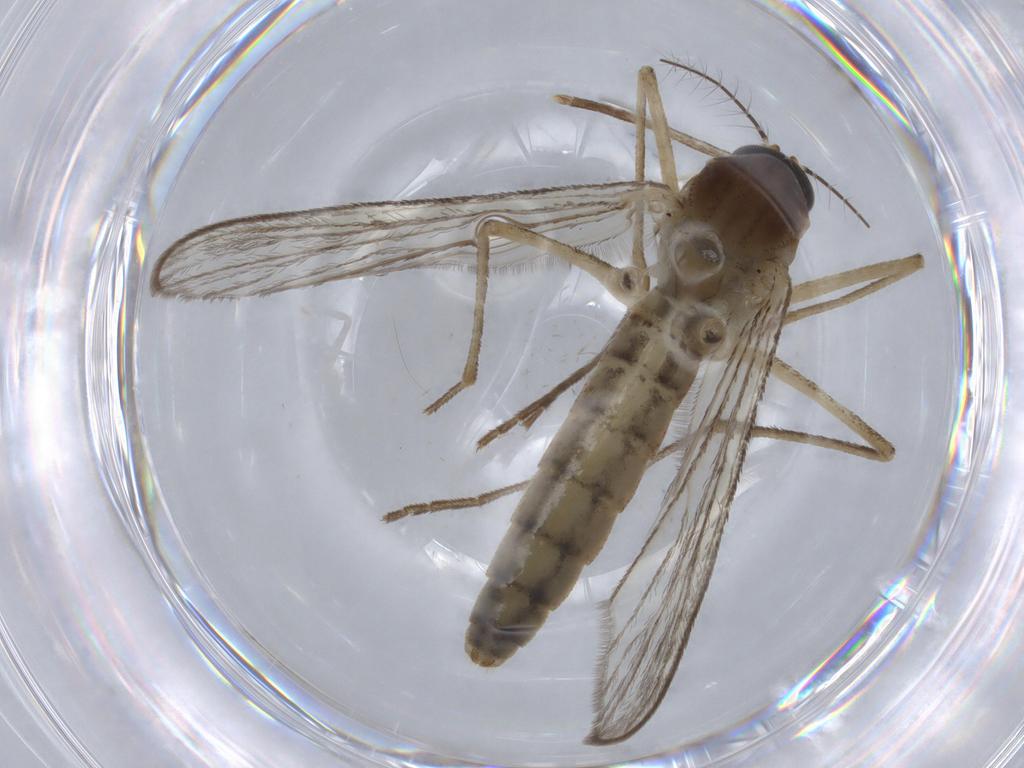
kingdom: Animalia
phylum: Arthropoda
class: Insecta
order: Diptera
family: Culicidae
